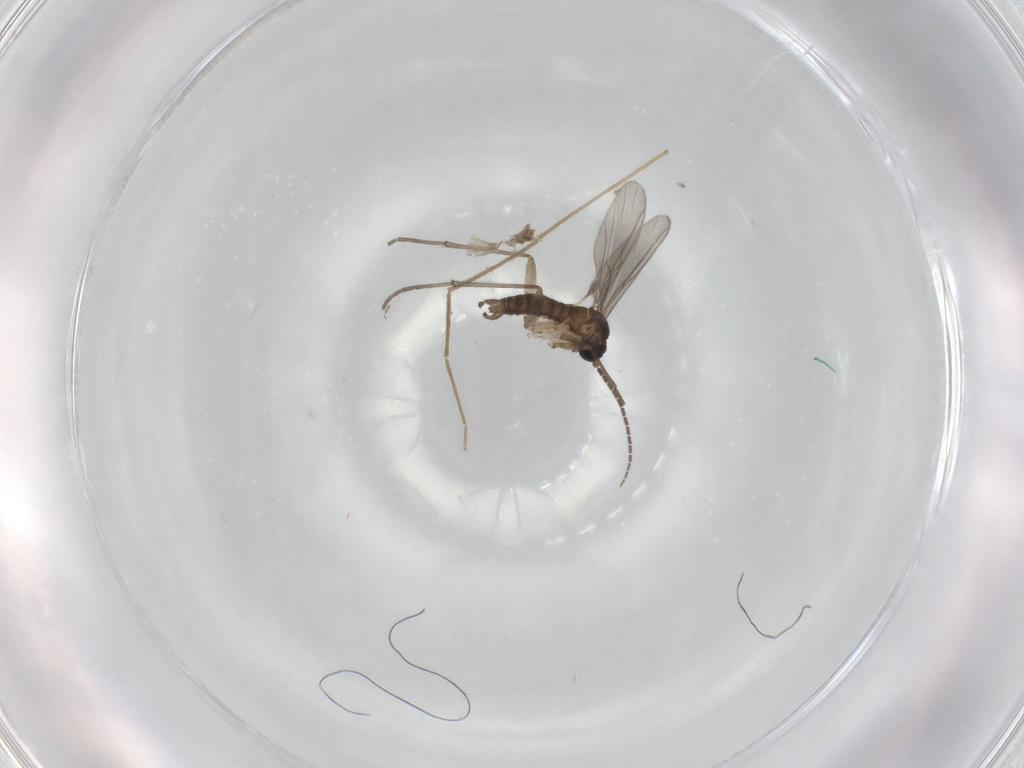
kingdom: Animalia
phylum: Arthropoda
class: Insecta
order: Diptera
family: Sciaridae
